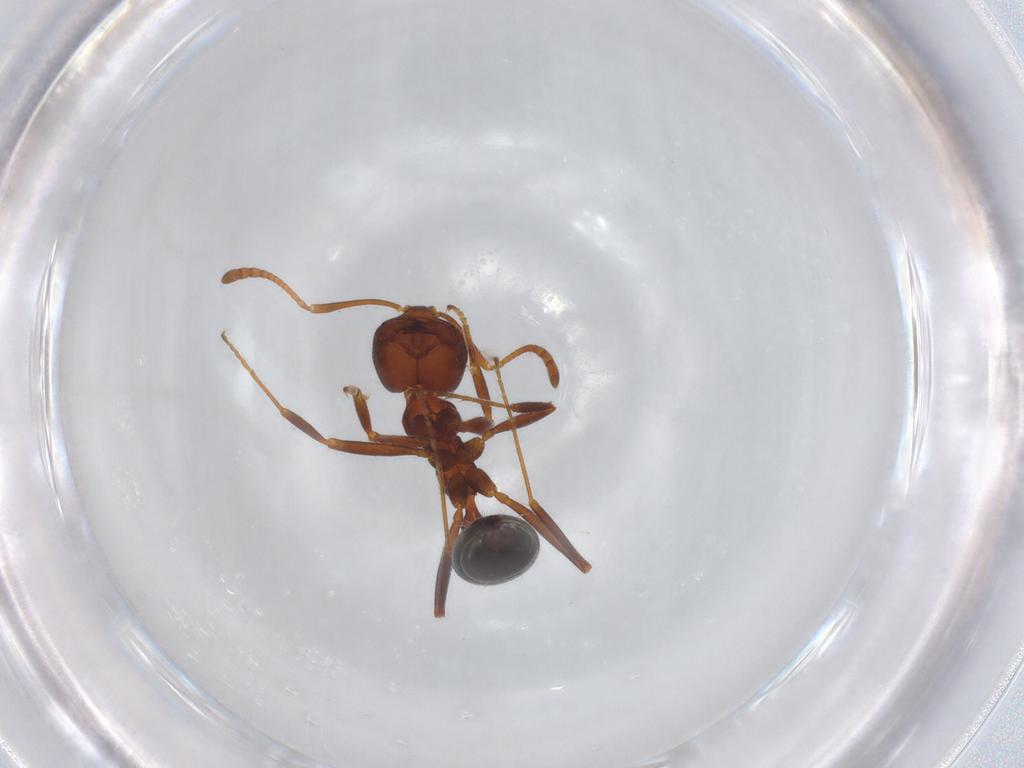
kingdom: Animalia
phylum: Arthropoda
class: Insecta
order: Hymenoptera
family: Formicidae
